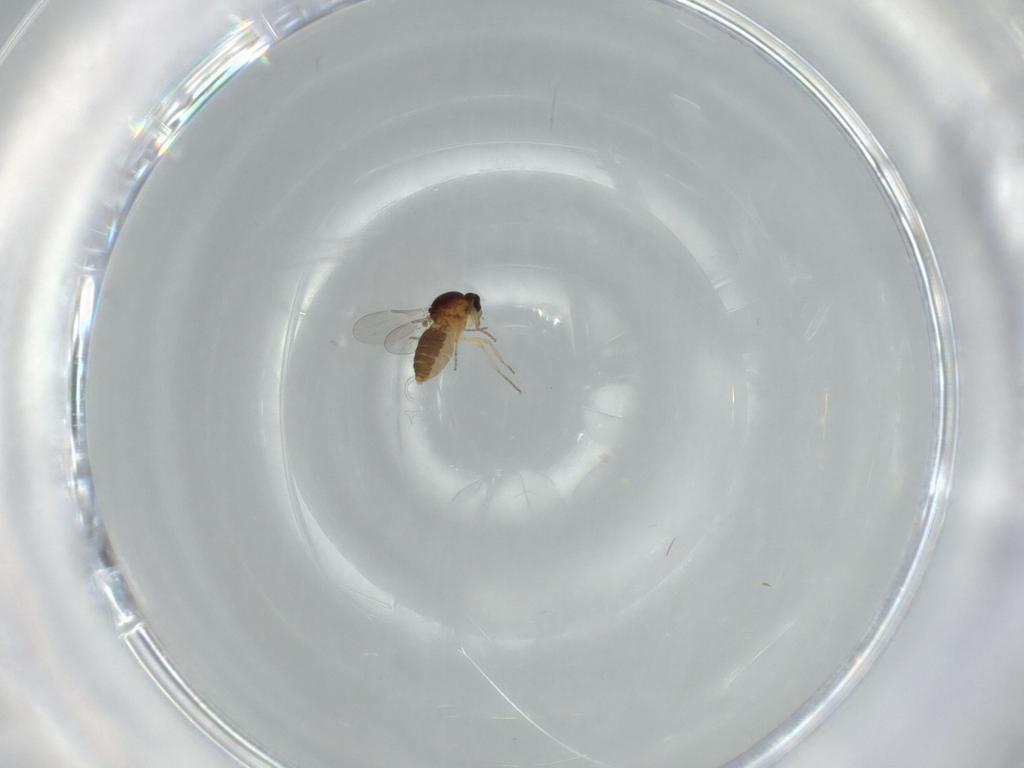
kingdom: Animalia
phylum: Arthropoda
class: Insecta
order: Diptera
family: Ceratopogonidae
